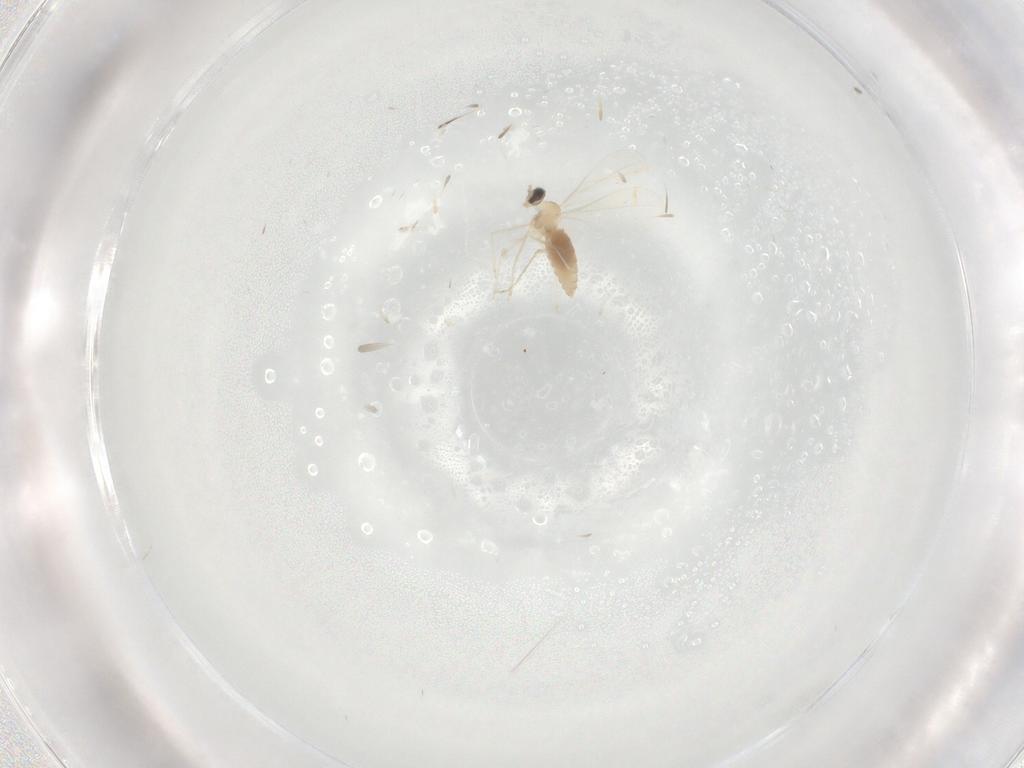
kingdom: Animalia
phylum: Arthropoda
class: Insecta
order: Diptera
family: Sciaridae
